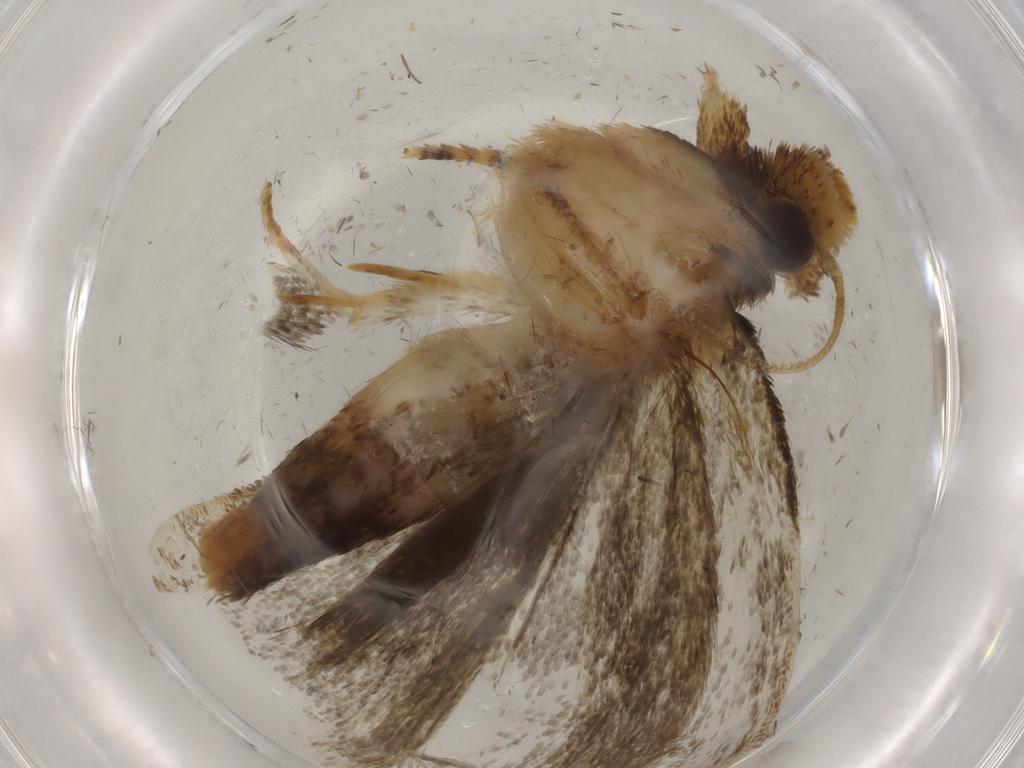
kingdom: Animalia
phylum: Arthropoda
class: Insecta
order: Lepidoptera
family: Tineidae
